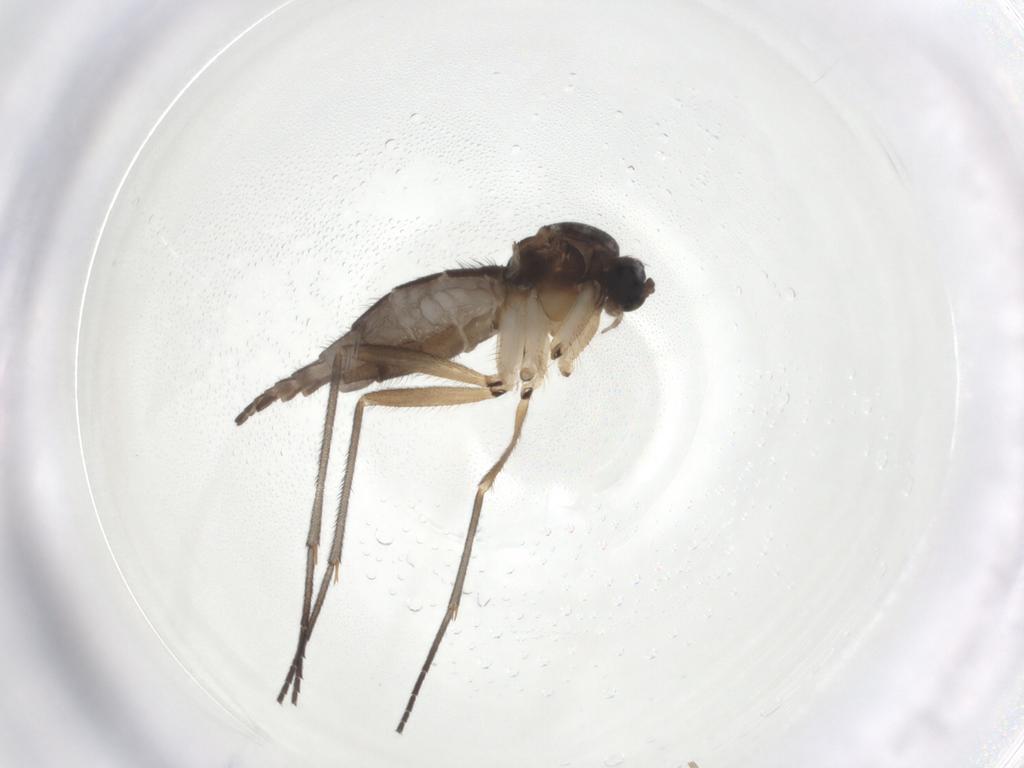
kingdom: Animalia
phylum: Arthropoda
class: Insecta
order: Diptera
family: Sciaridae
